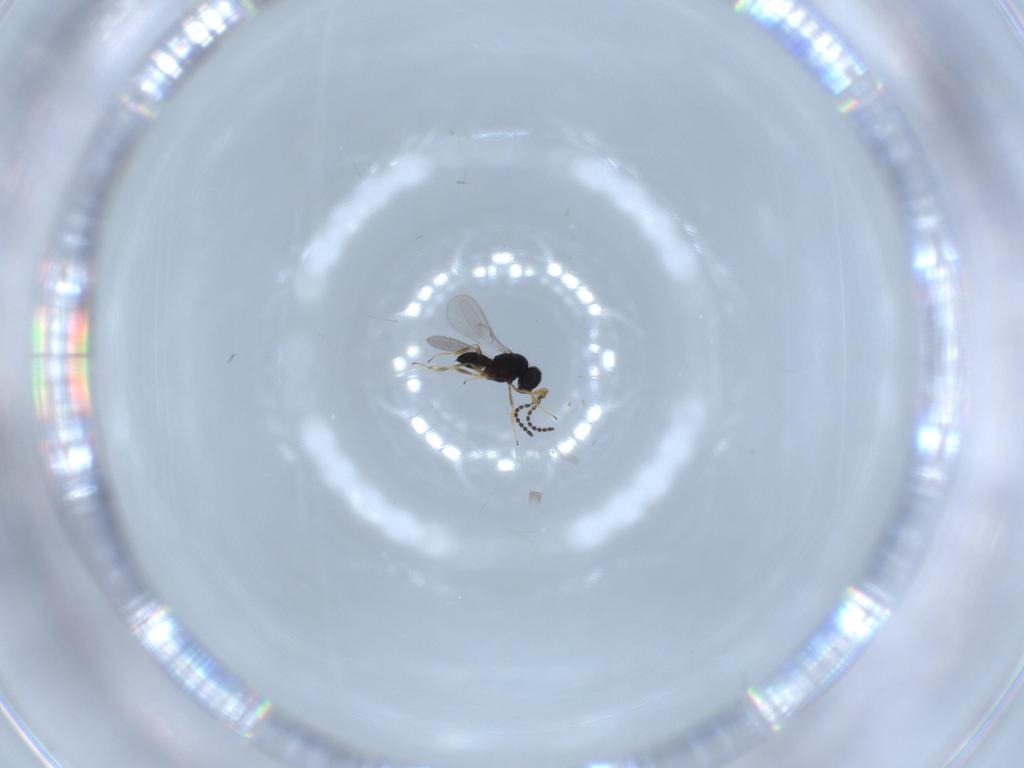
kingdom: Animalia
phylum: Arthropoda
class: Insecta
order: Hymenoptera
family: Scelionidae
